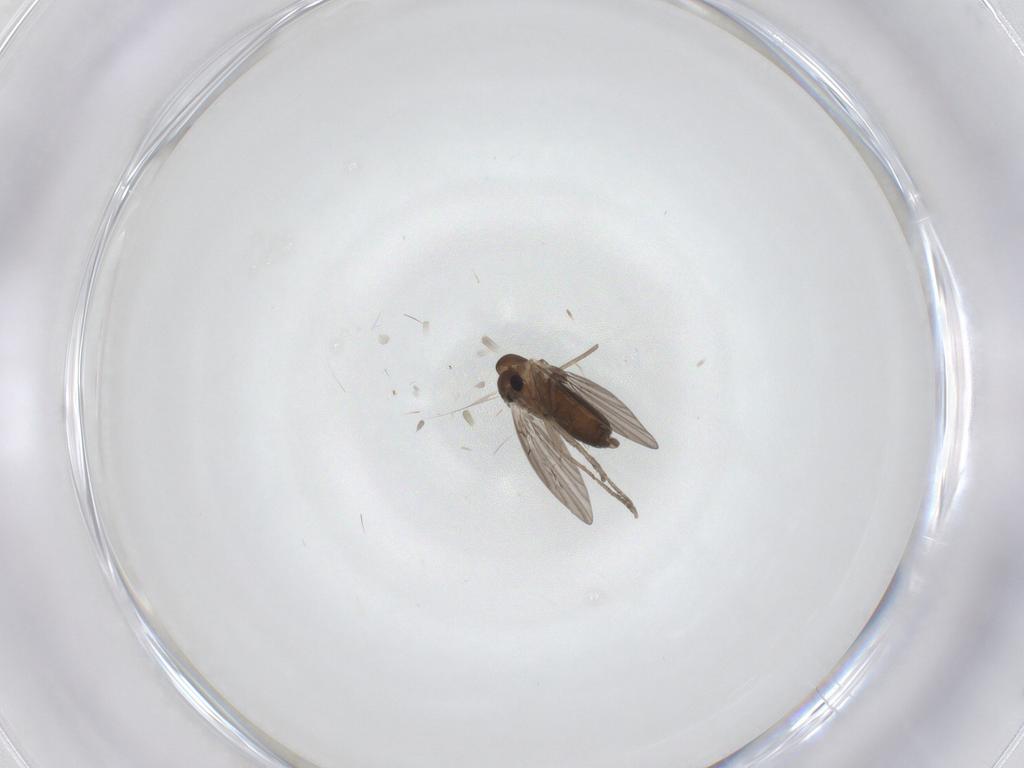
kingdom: Animalia
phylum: Arthropoda
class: Insecta
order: Diptera
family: Psychodidae
